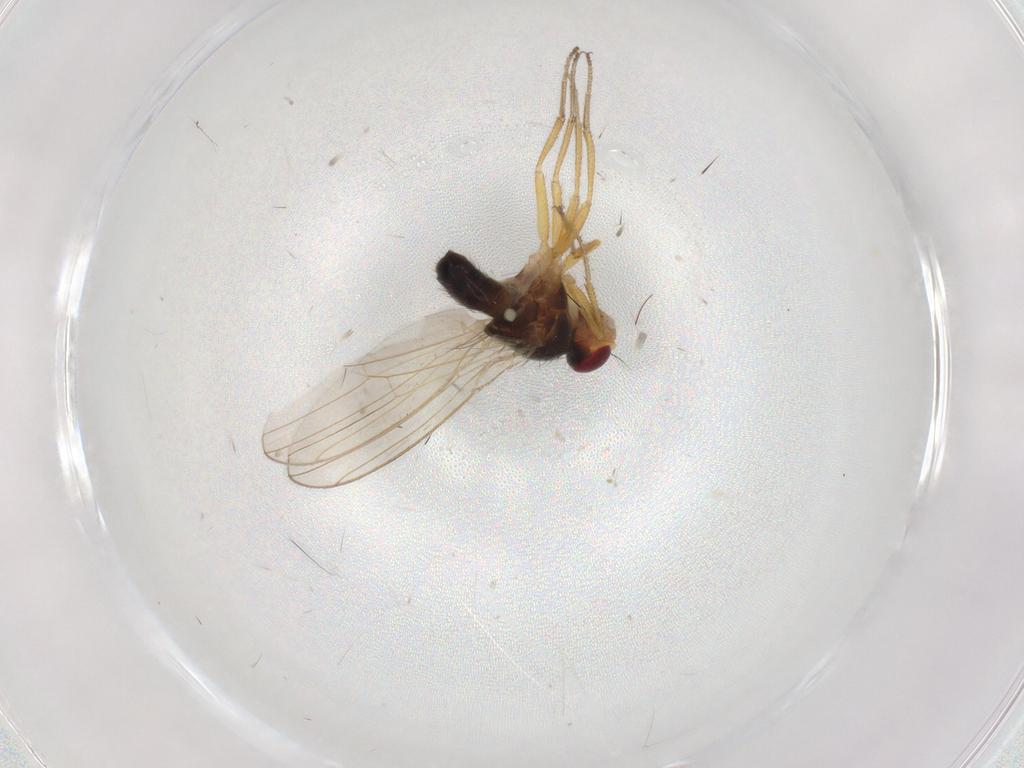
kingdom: Animalia
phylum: Arthropoda
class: Insecta
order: Diptera
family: Drosophilidae
